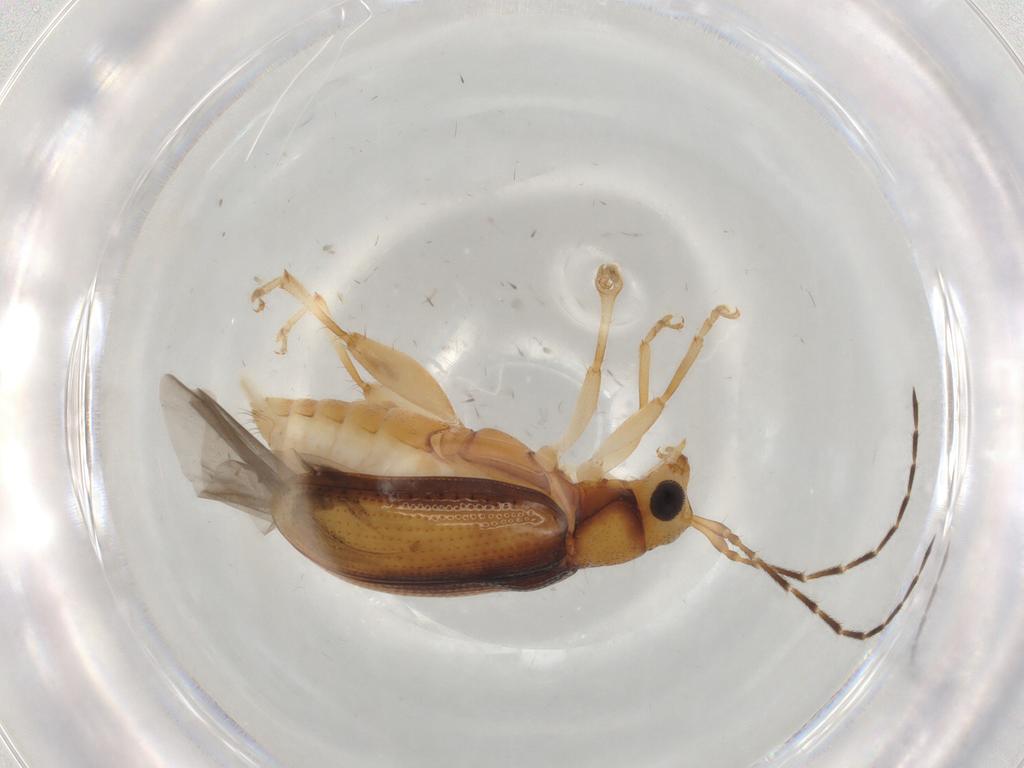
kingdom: Animalia
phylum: Arthropoda
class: Insecta
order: Coleoptera
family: Chrysomelidae
